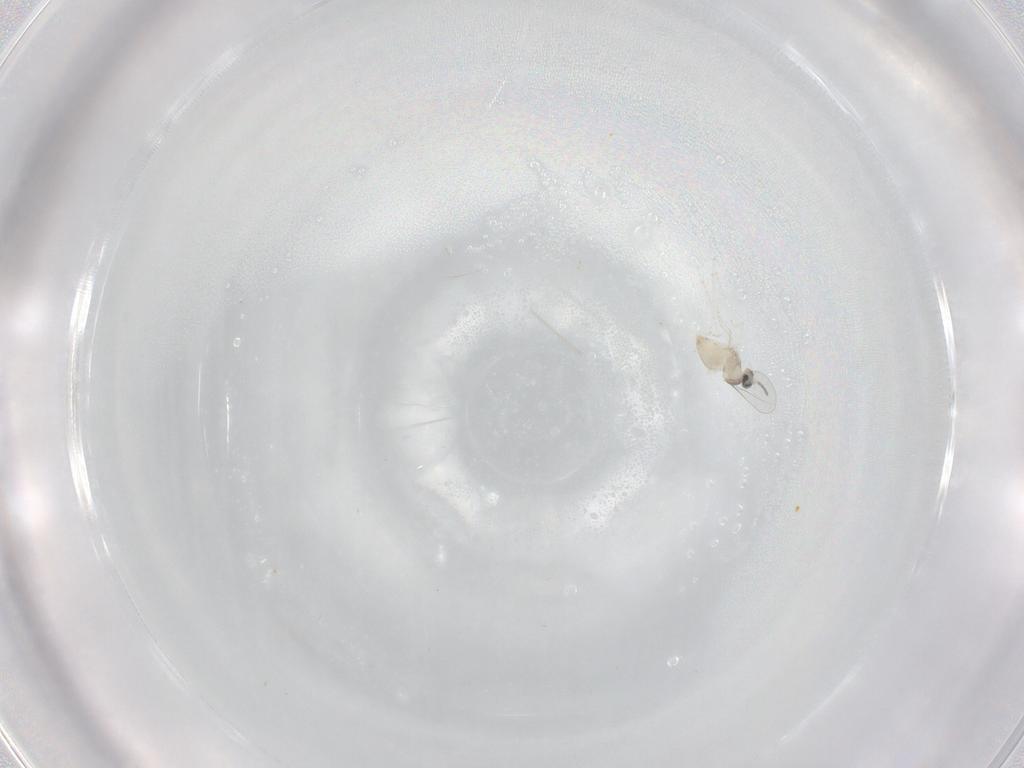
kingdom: Animalia
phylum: Arthropoda
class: Insecta
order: Diptera
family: Cecidomyiidae
